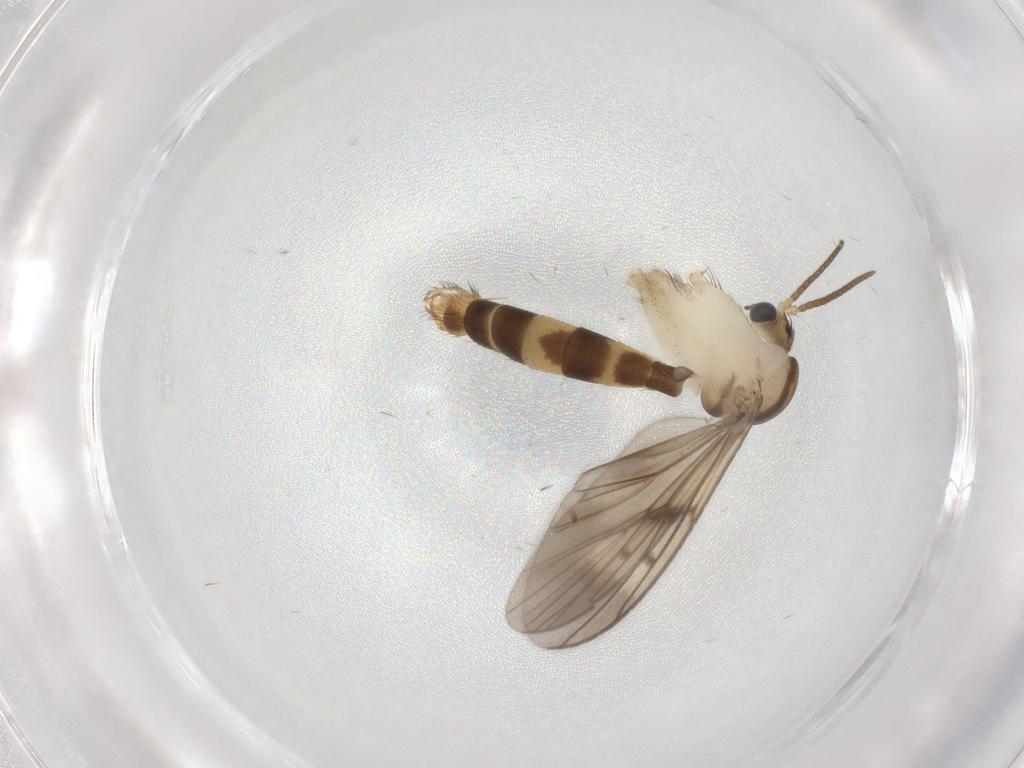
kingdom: Animalia
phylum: Arthropoda
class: Insecta
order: Diptera
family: Mycetophilidae
